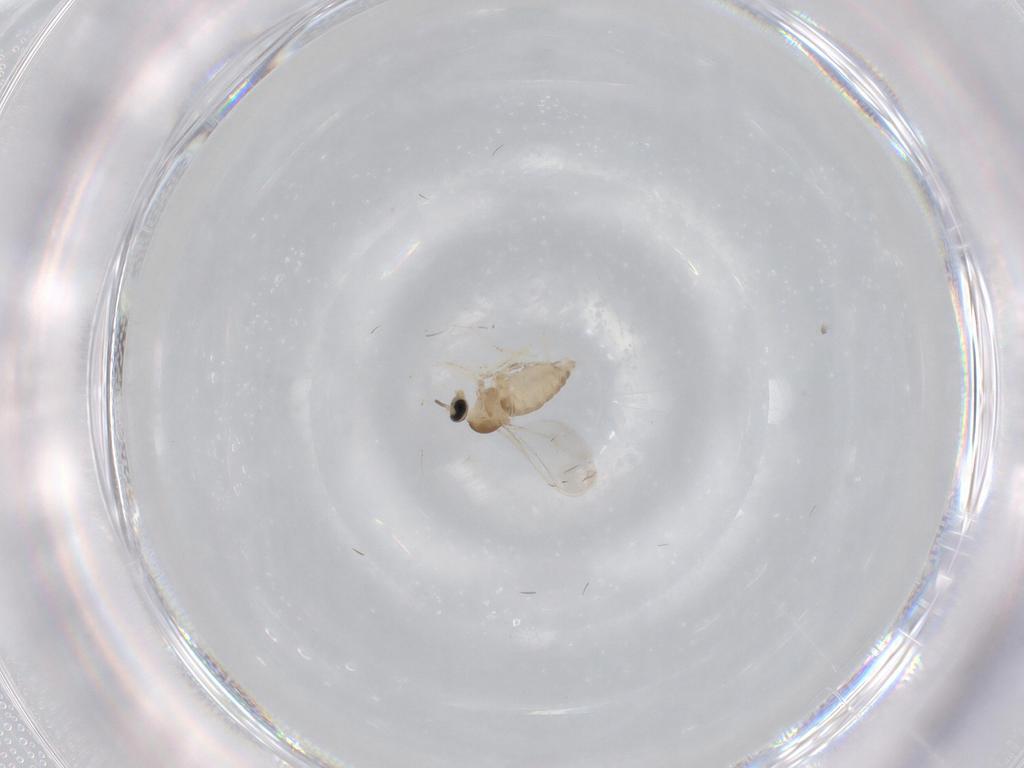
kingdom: Animalia
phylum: Arthropoda
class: Insecta
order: Diptera
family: Cecidomyiidae
